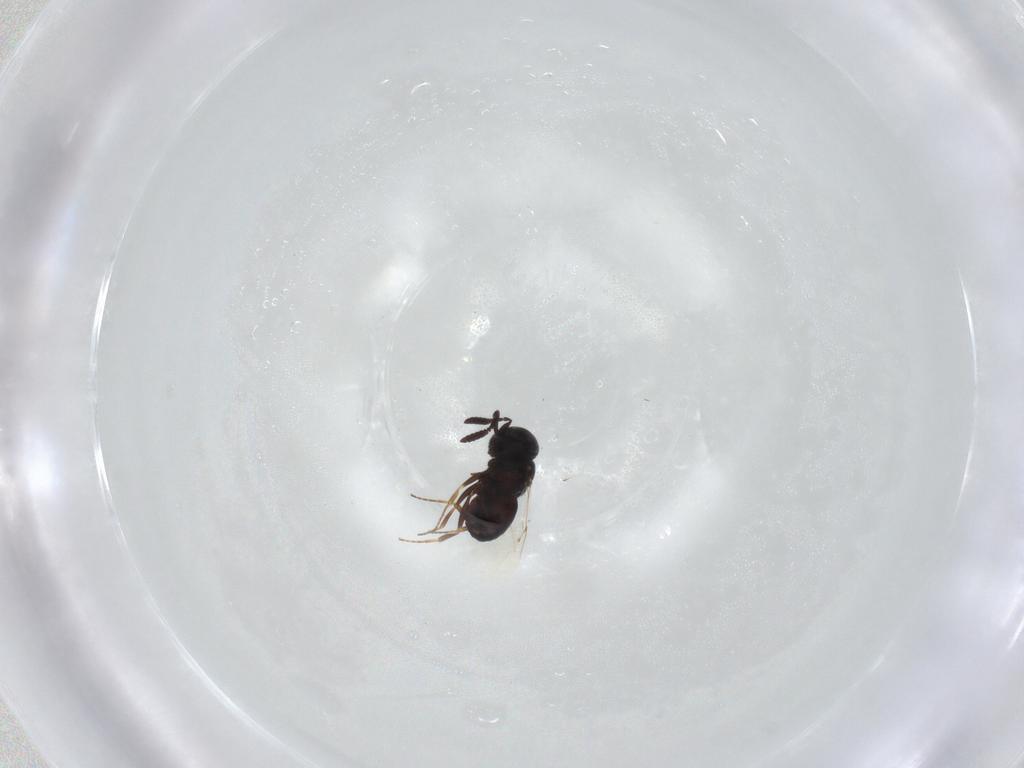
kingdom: Animalia
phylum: Arthropoda
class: Insecta
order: Hymenoptera
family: Scelionidae
